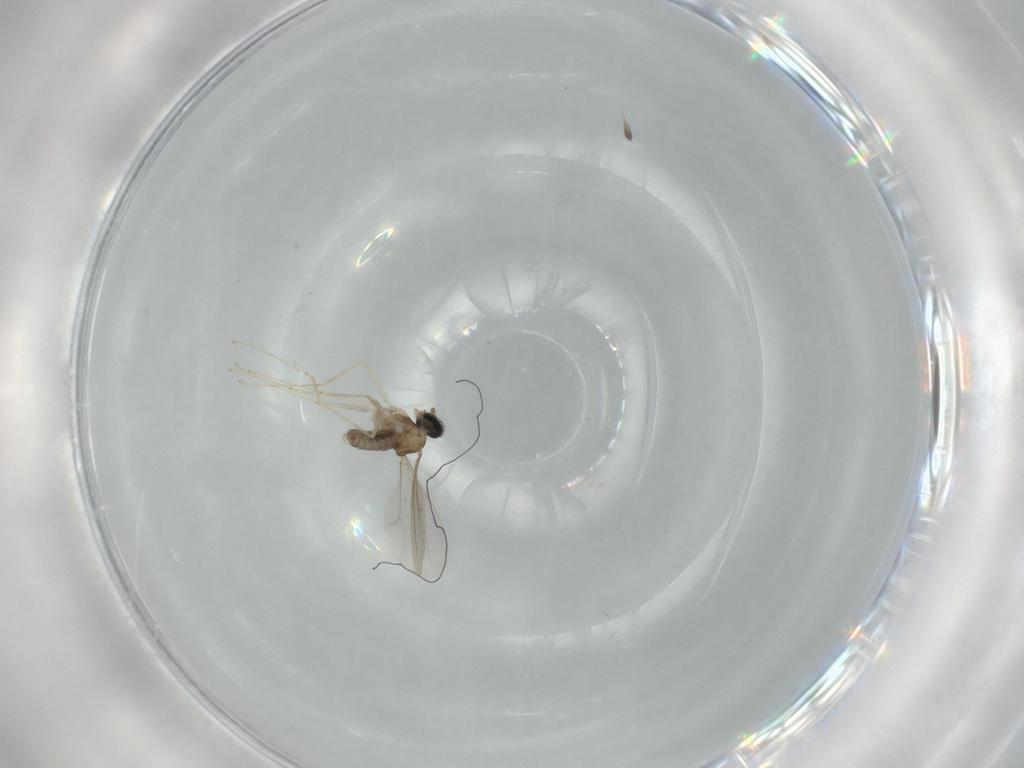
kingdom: Animalia
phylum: Arthropoda
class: Insecta
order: Diptera
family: Cecidomyiidae
